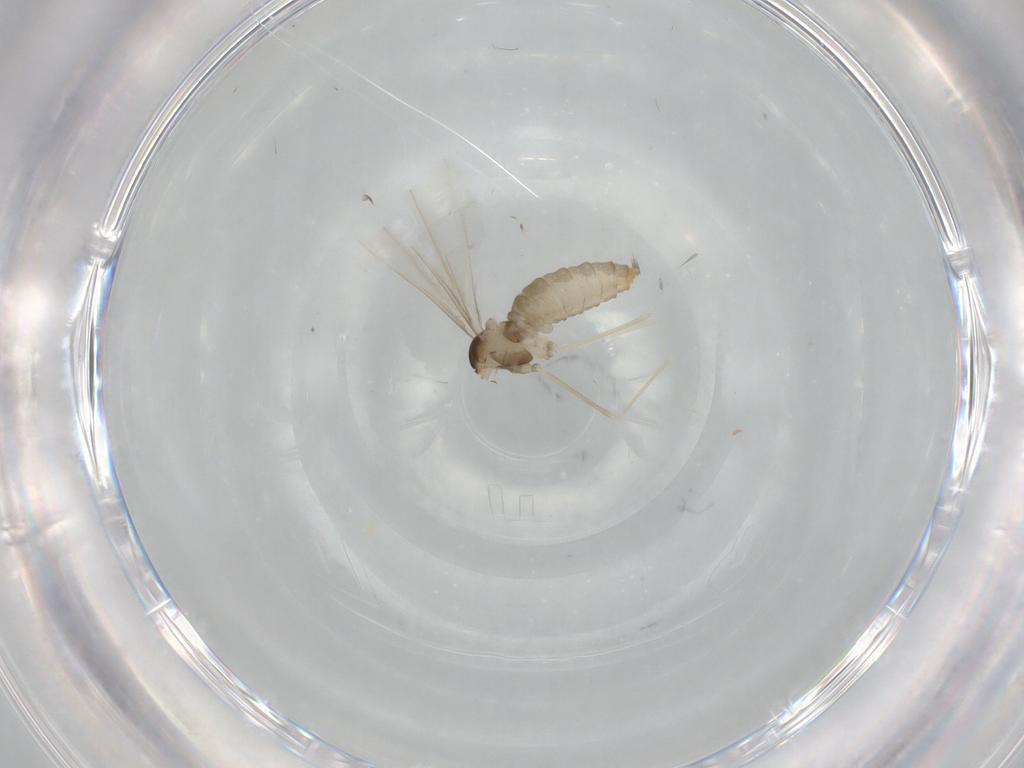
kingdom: Animalia
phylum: Arthropoda
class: Insecta
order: Diptera
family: Cecidomyiidae
